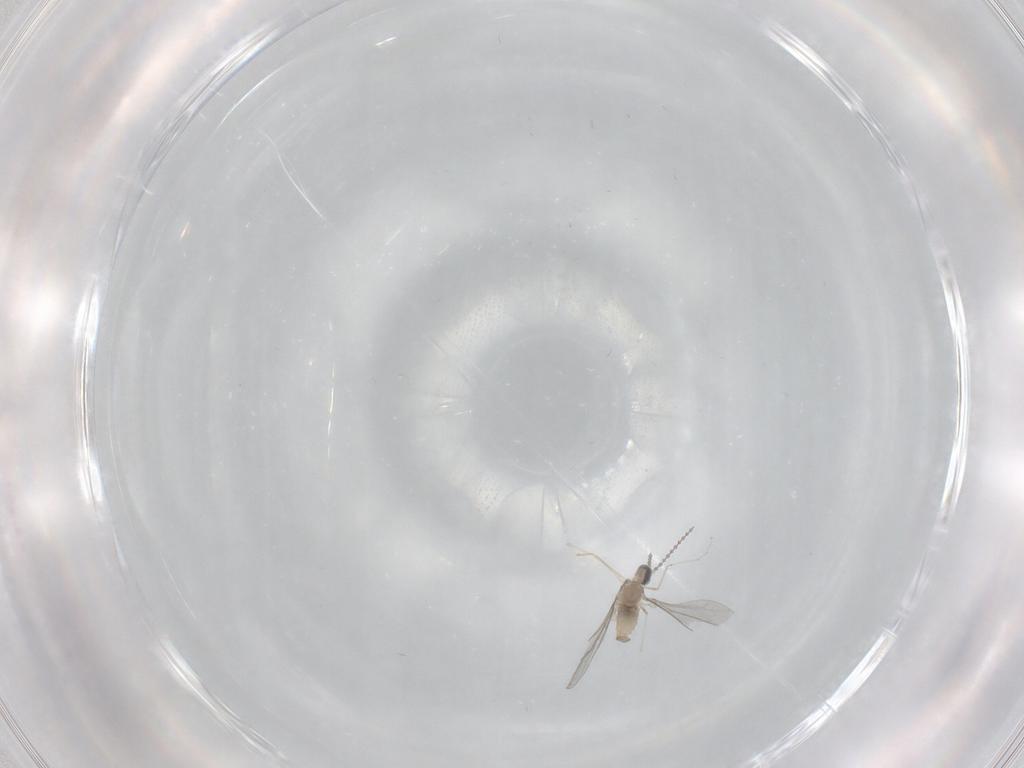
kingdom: Animalia
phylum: Arthropoda
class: Insecta
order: Diptera
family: Cecidomyiidae
